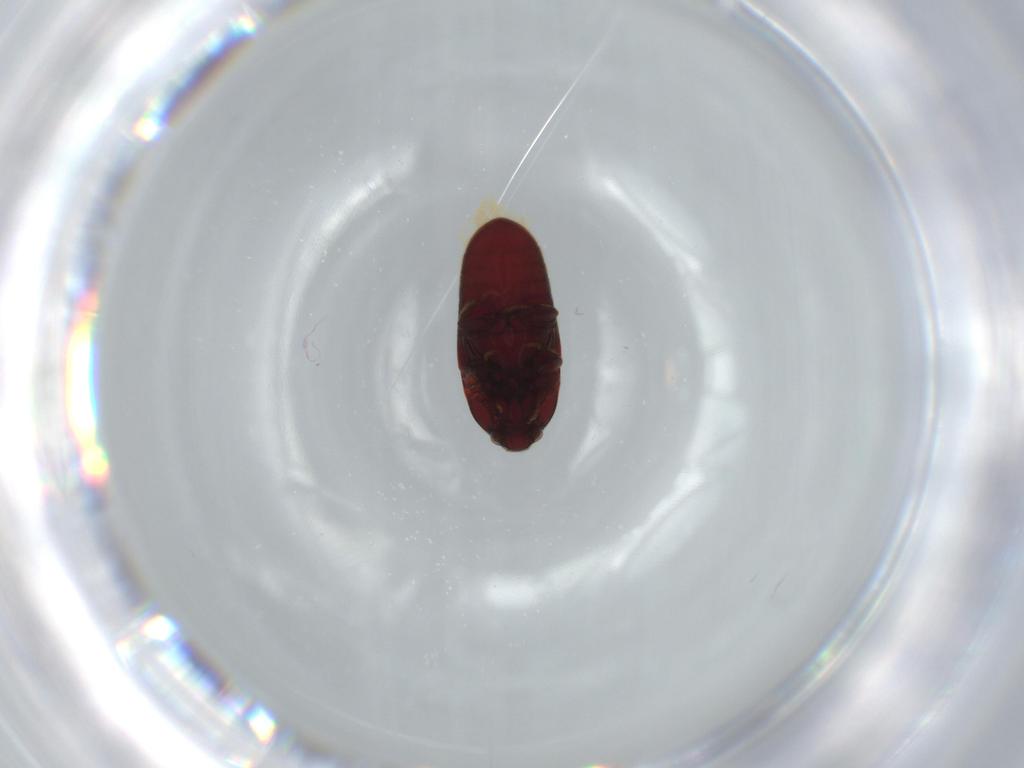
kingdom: Animalia
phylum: Arthropoda
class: Insecta
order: Coleoptera
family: Throscidae
